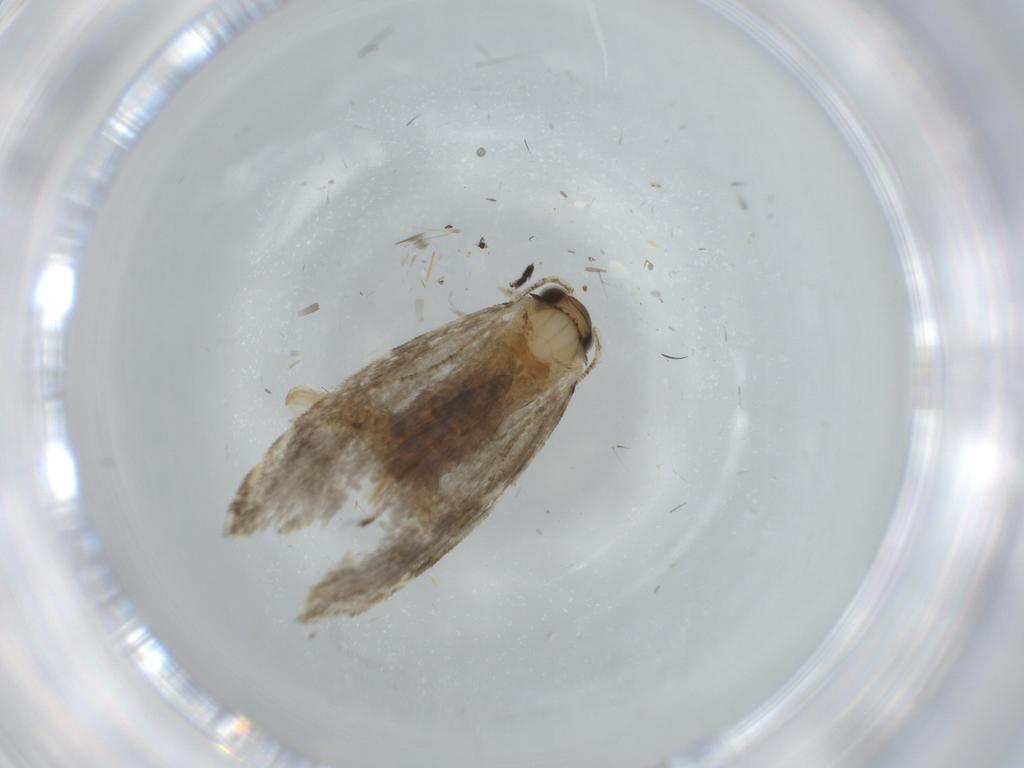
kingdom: Animalia
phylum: Arthropoda
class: Insecta
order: Lepidoptera
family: Tineidae
